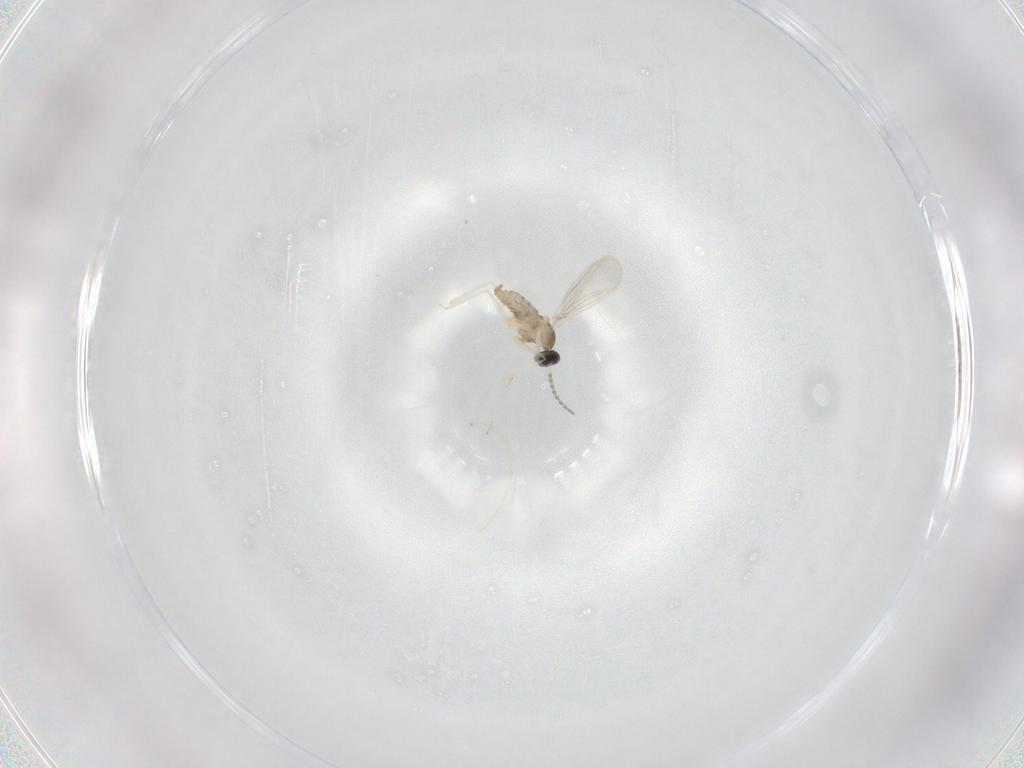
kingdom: Animalia
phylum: Arthropoda
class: Insecta
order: Diptera
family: Cecidomyiidae
